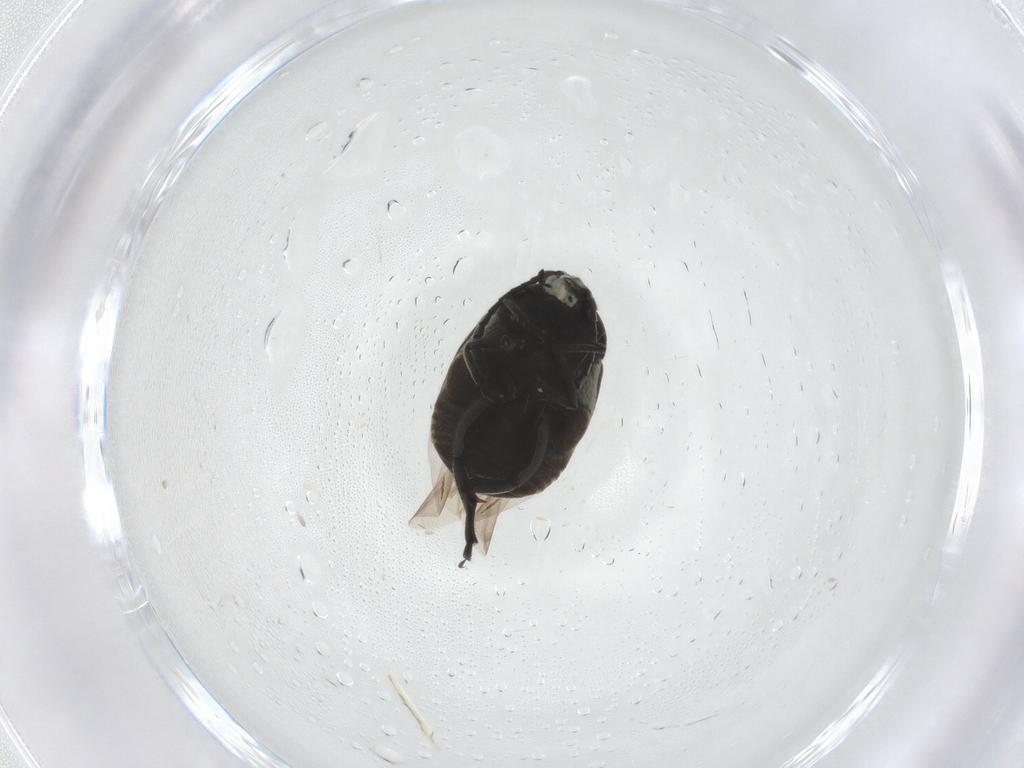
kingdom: Animalia
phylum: Arthropoda
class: Insecta
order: Coleoptera
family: Chrysomelidae
